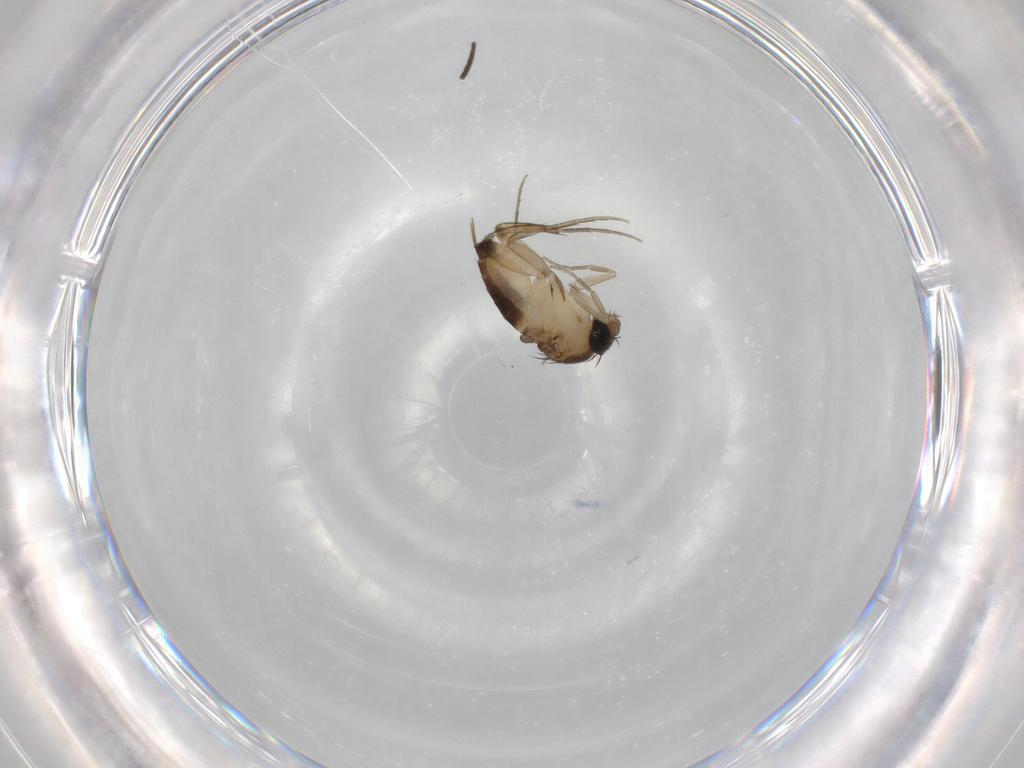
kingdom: Animalia
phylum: Arthropoda
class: Insecta
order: Diptera
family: Phoridae
